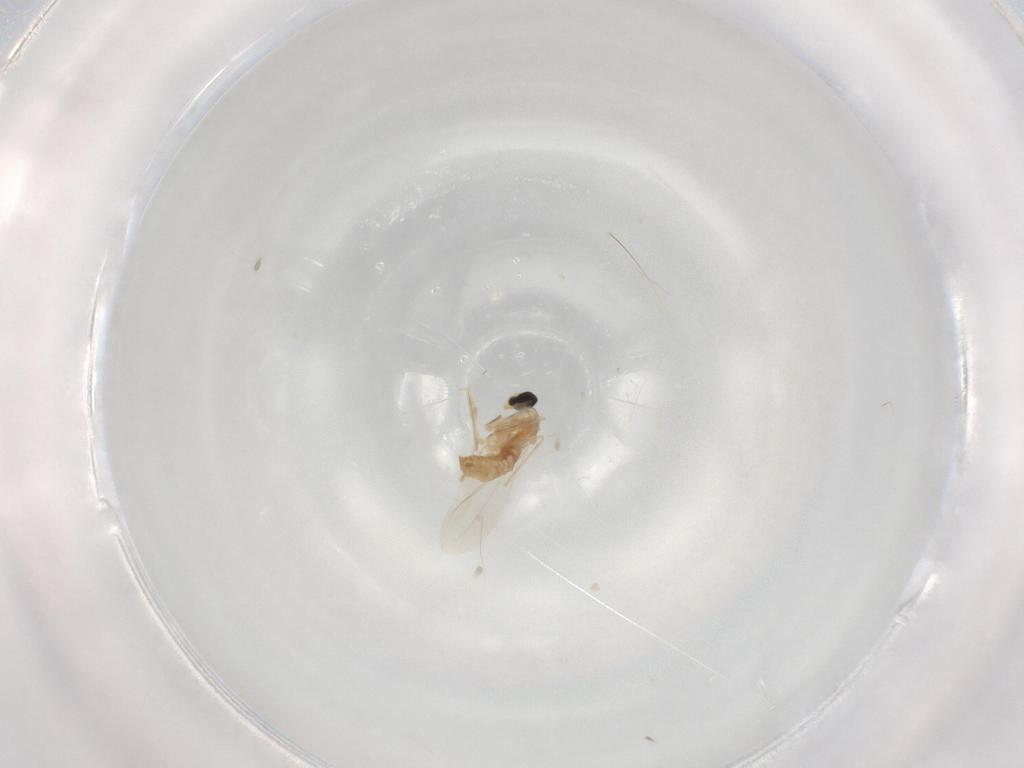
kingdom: Animalia
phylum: Arthropoda
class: Insecta
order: Diptera
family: Cecidomyiidae
